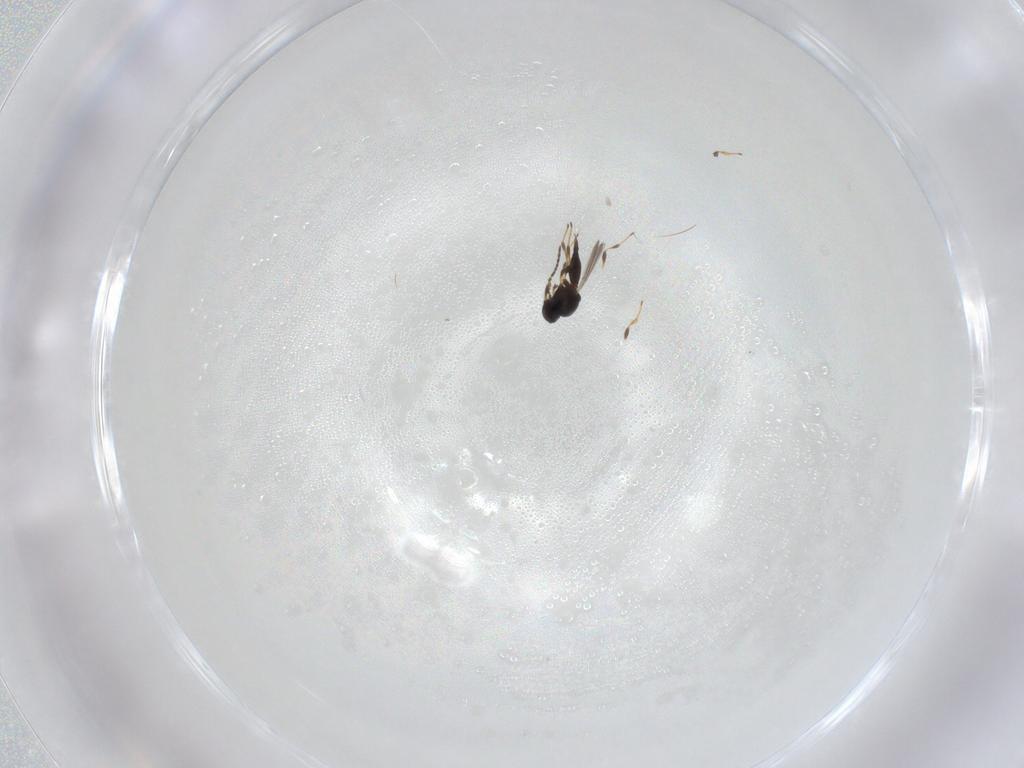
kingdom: Animalia
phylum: Arthropoda
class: Insecta
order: Hymenoptera
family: Platygastridae
